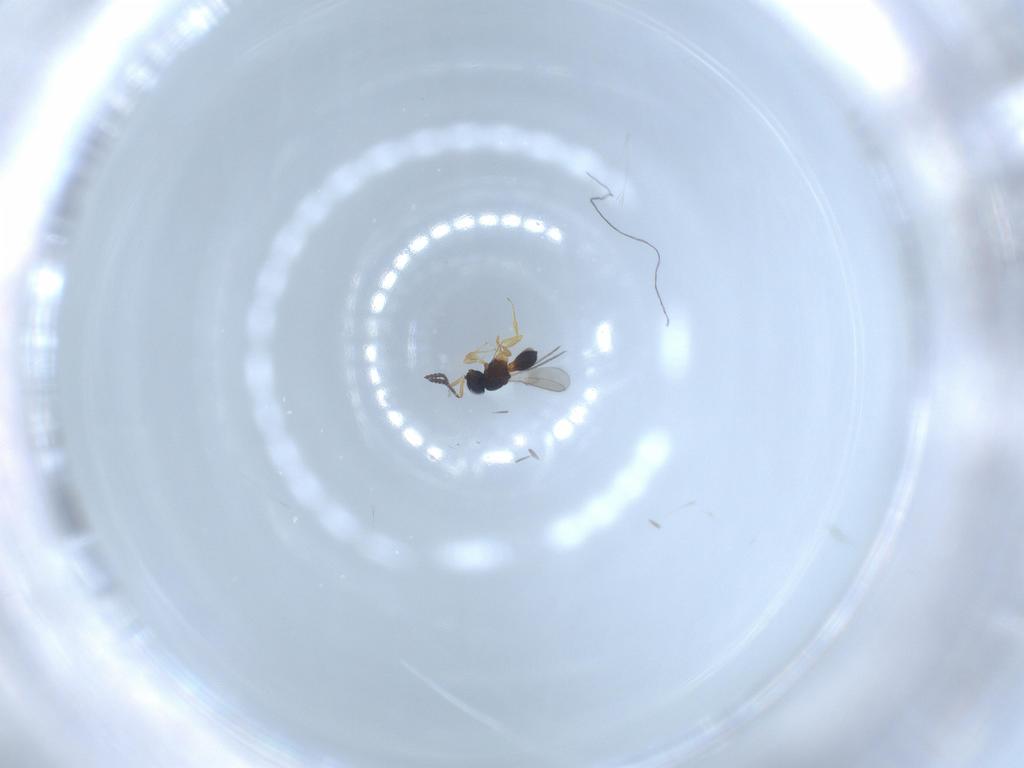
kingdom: Animalia
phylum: Arthropoda
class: Insecta
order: Hymenoptera
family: Scelionidae
